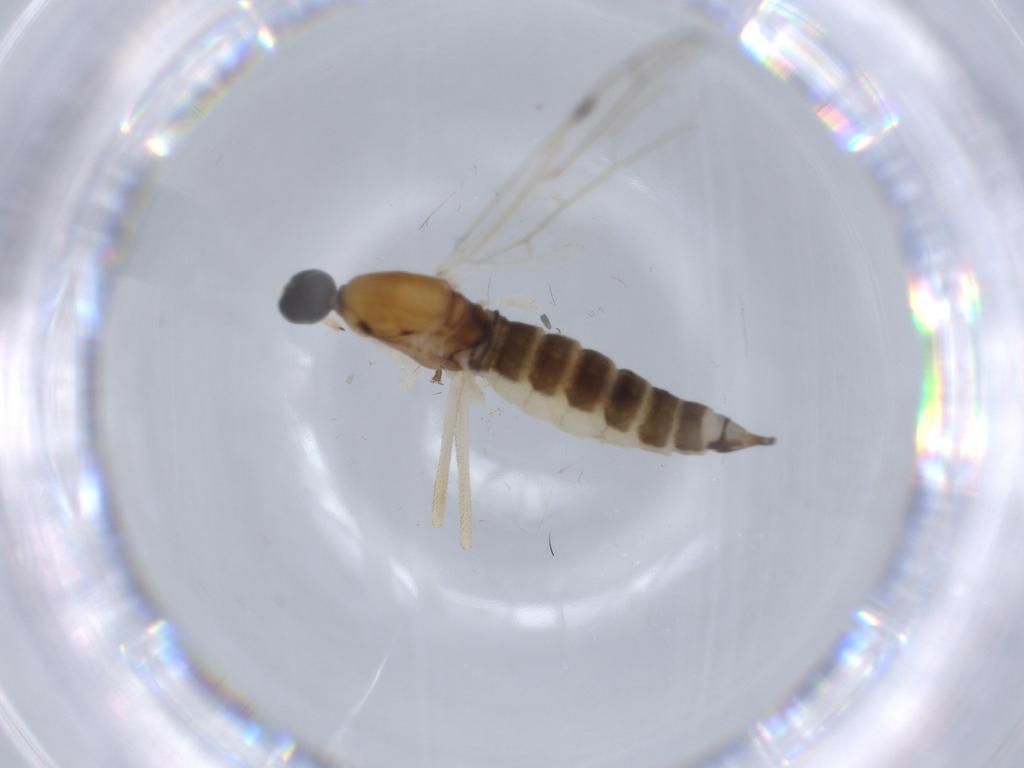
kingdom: Animalia
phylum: Arthropoda
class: Insecta
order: Diptera
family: Empididae
